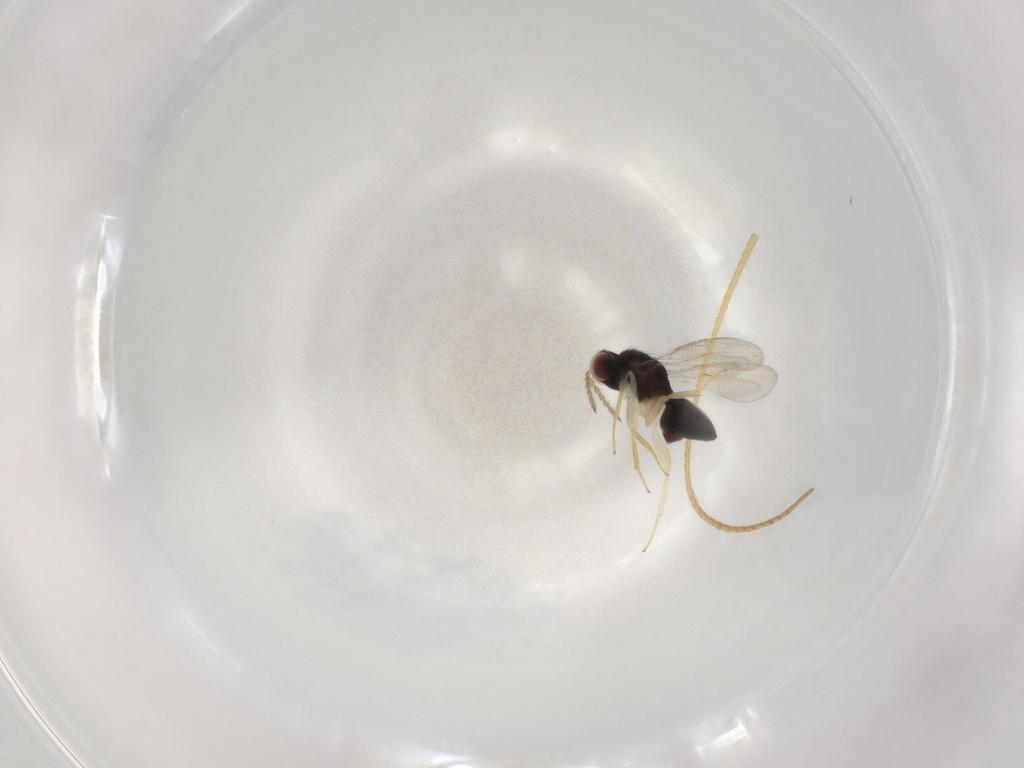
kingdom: Animalia
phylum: Arthropoda
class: Insecta
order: Hymenoptera
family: Eulophidae
